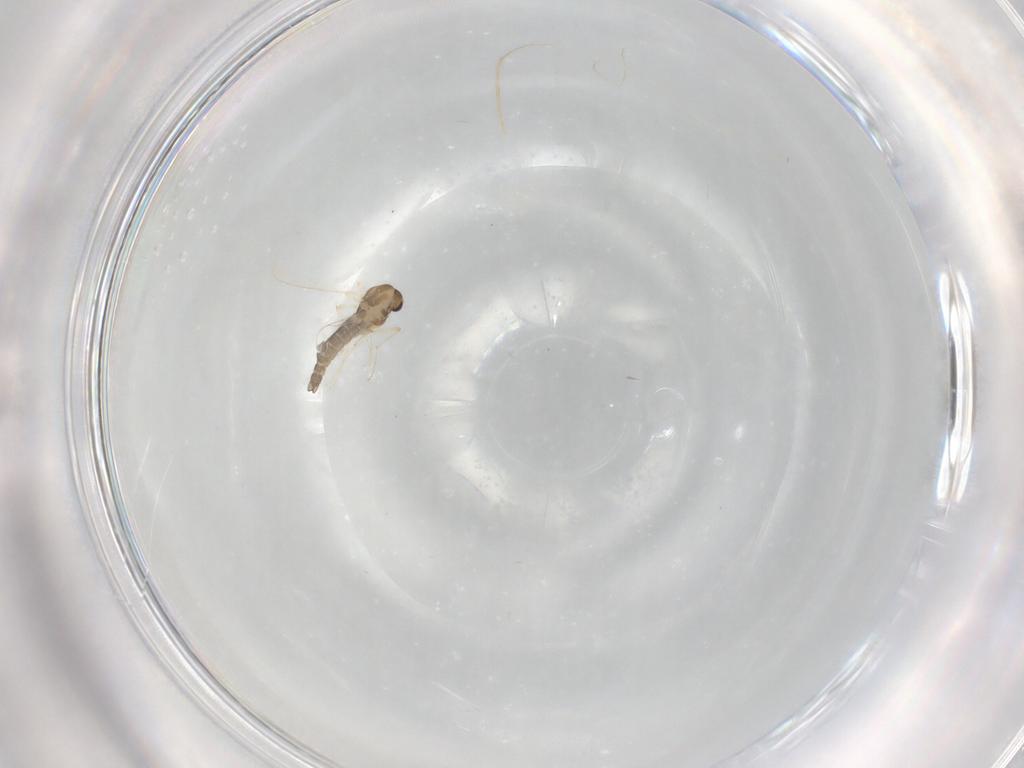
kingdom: Animalia
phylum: Arthropoda
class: Insecta
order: Diptera
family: Chironomidae
